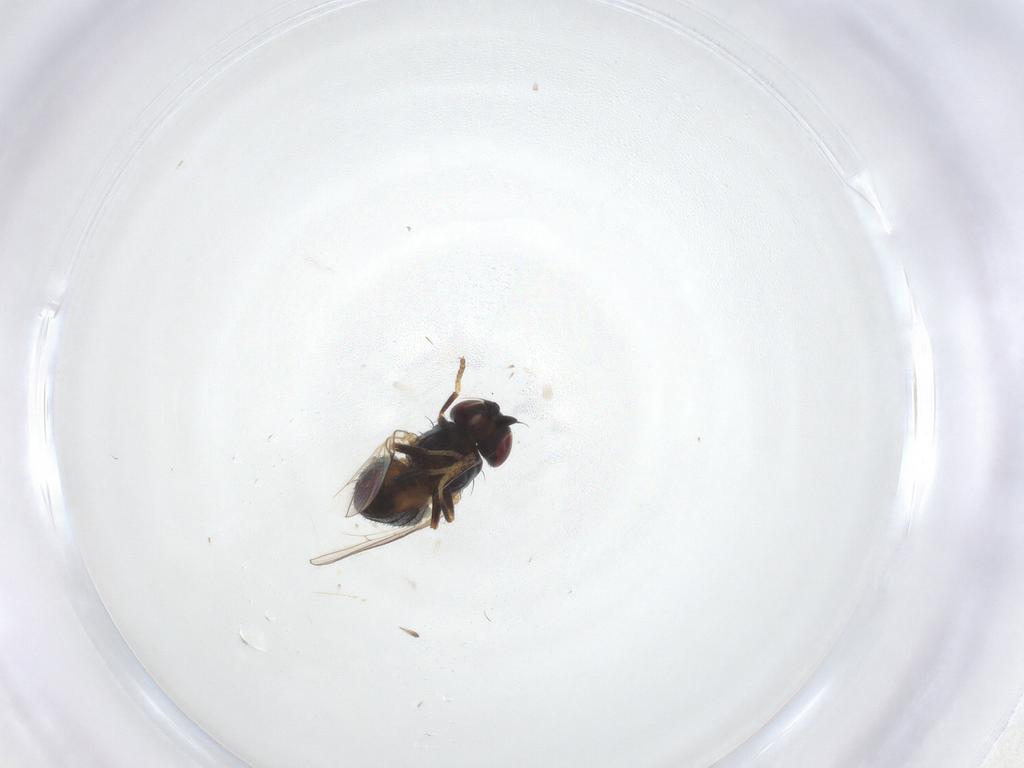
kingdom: Animalia
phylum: Arthropoda
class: Insecta
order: Diptera
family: Chamaemyiidae
